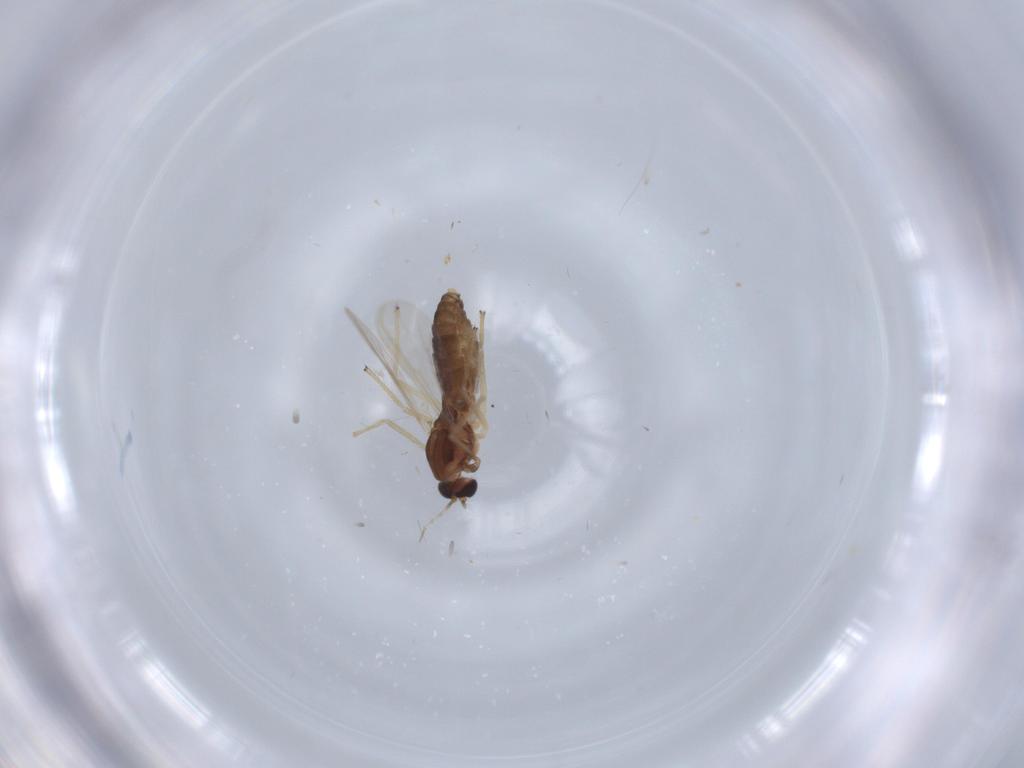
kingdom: Animalia
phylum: Arthropoda
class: Insecta
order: Diptera
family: Chironomidae
